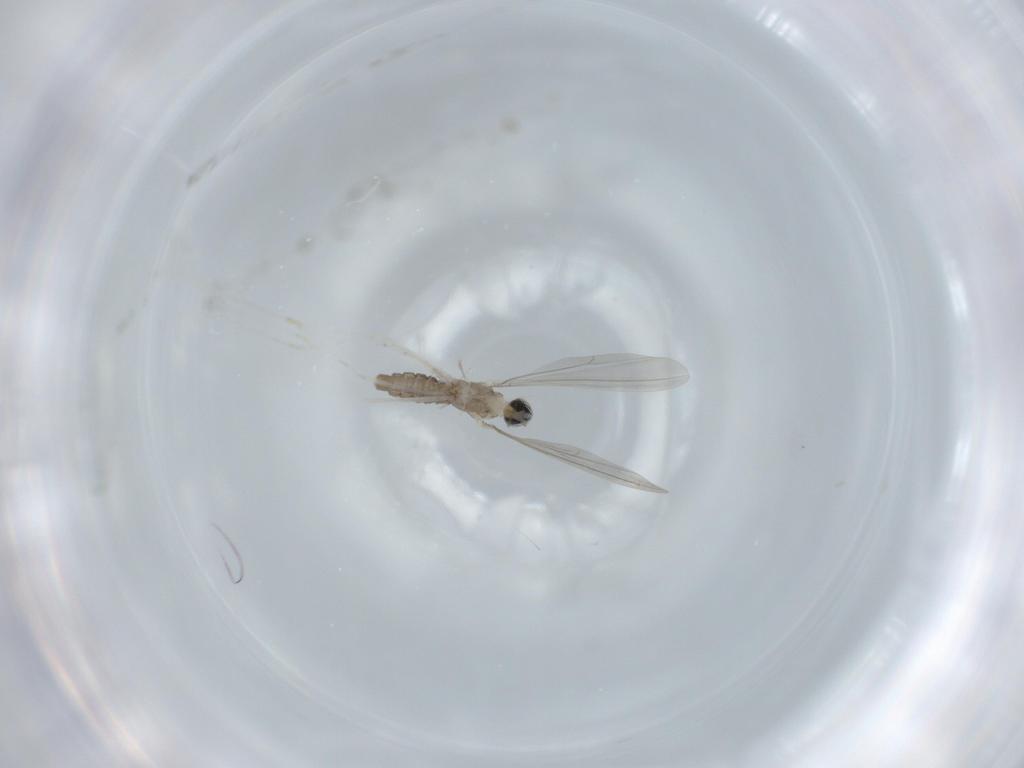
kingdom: Animalia
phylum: Arthropoda
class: Insecta
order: Diptera
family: Cecidomyiidae
